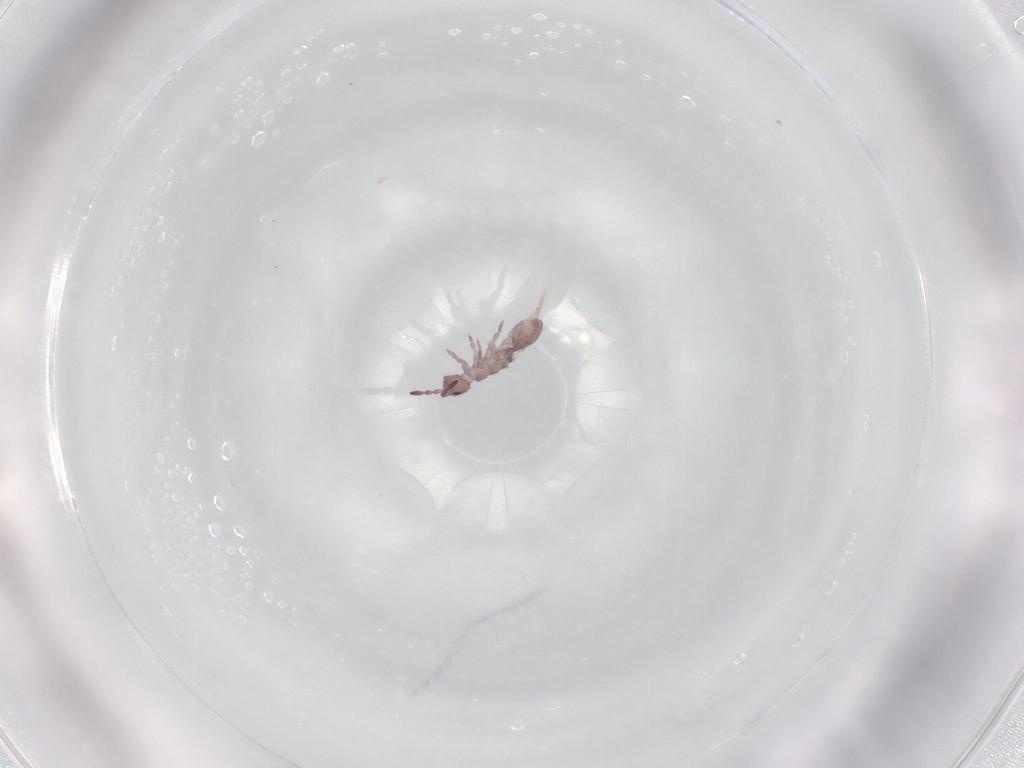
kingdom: Animalia
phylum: Arthropoda
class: Collembola
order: Entomobryomorpha
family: Isotomidae
